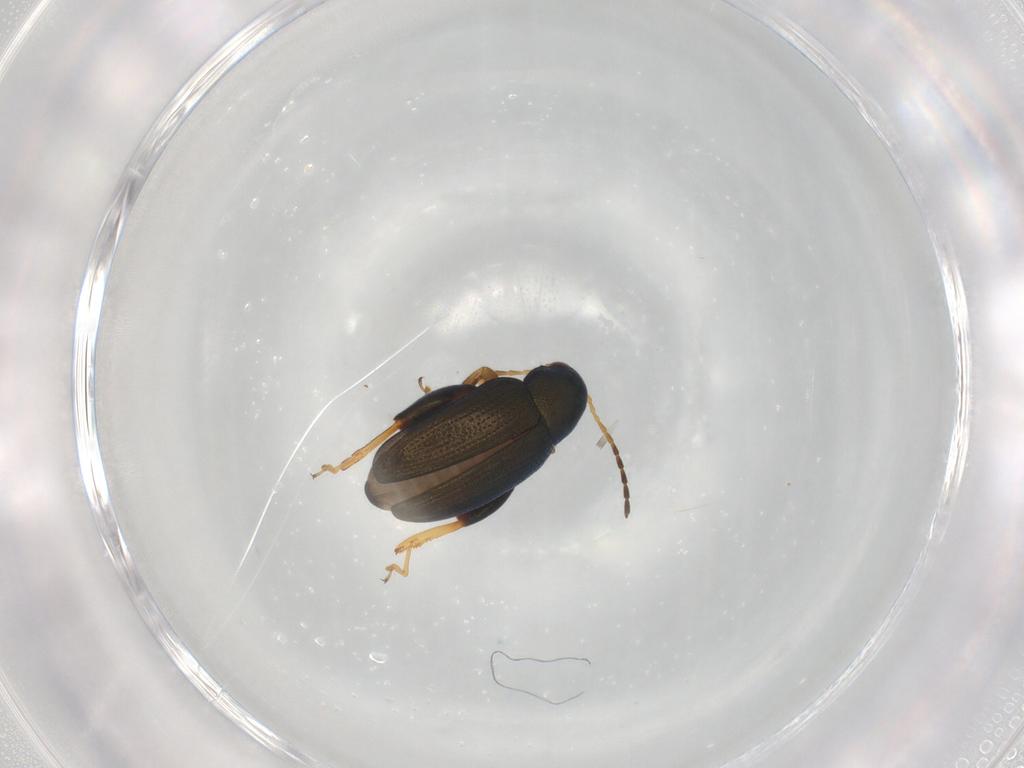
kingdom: Animalia
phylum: Arthropoda
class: Insecta
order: Coleoptera
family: Chrysomelidae
